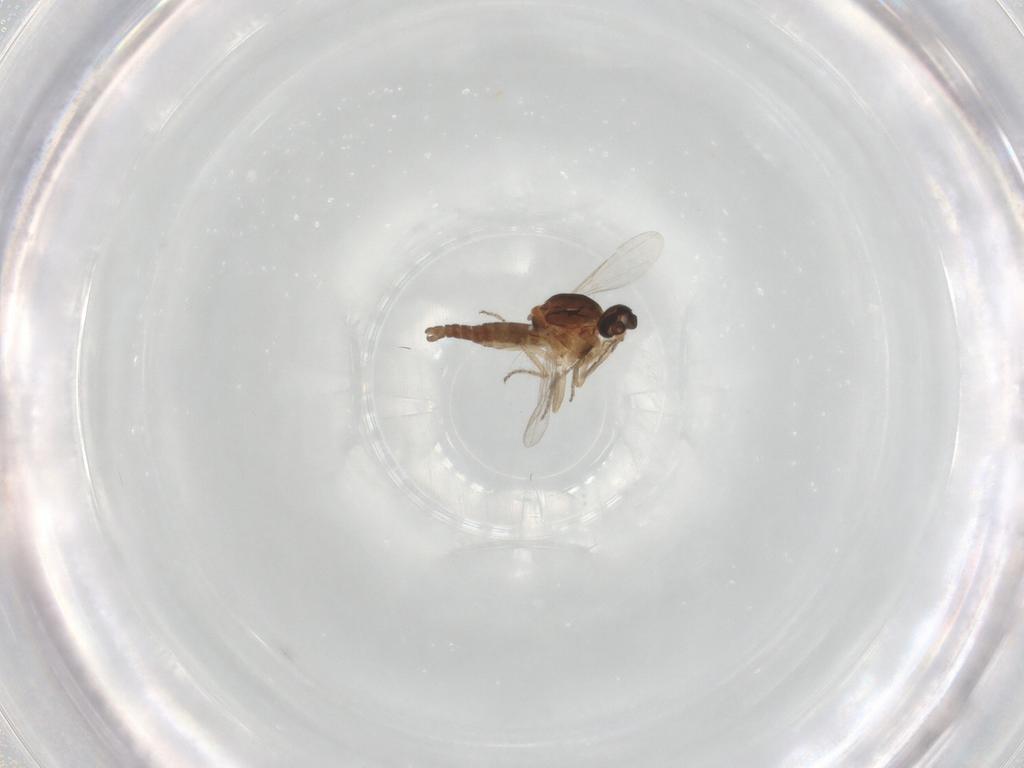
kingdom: Animalia
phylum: Arthropoda
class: Insecta
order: Diptera
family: Ceratopogonidae
